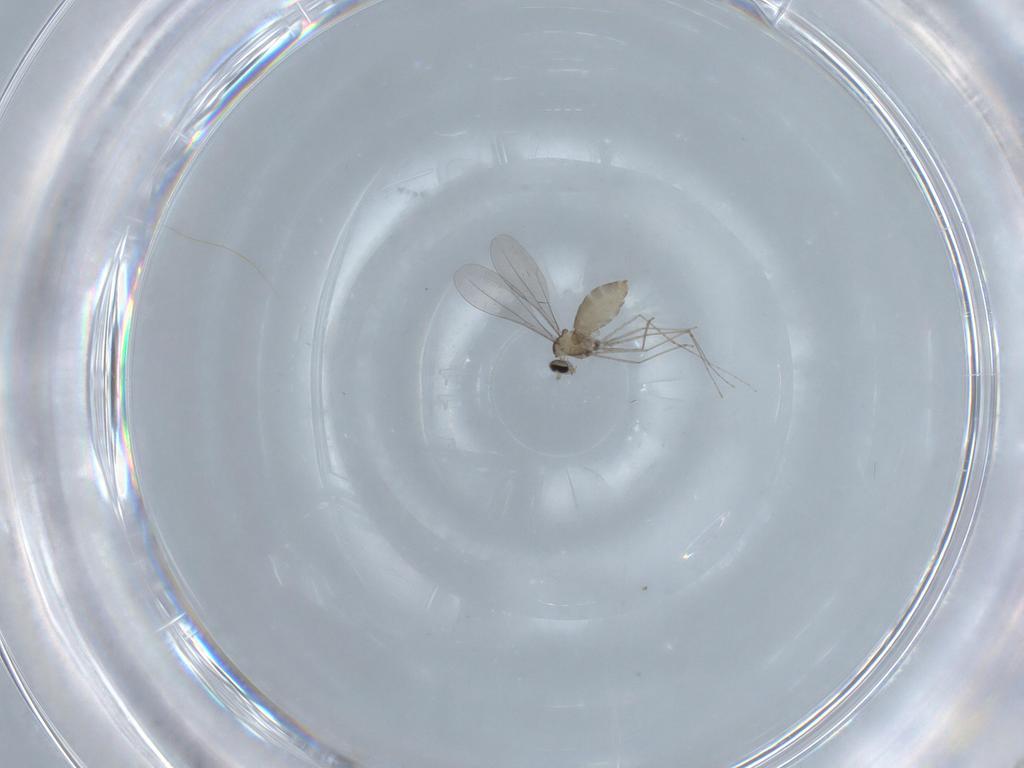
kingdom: Animalia
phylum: Arthropoda
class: Insecta
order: Diptera
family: Cecidomyiidae
